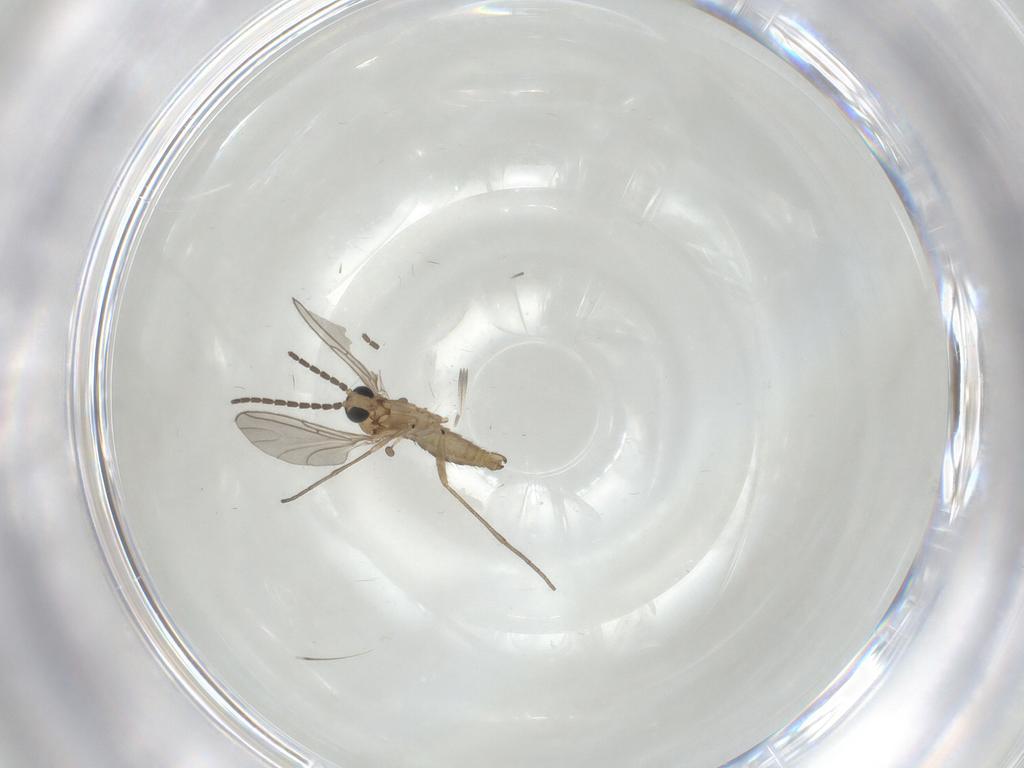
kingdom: Animalia
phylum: Arthropoda
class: Insecta
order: Diptera
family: Sciaridae
